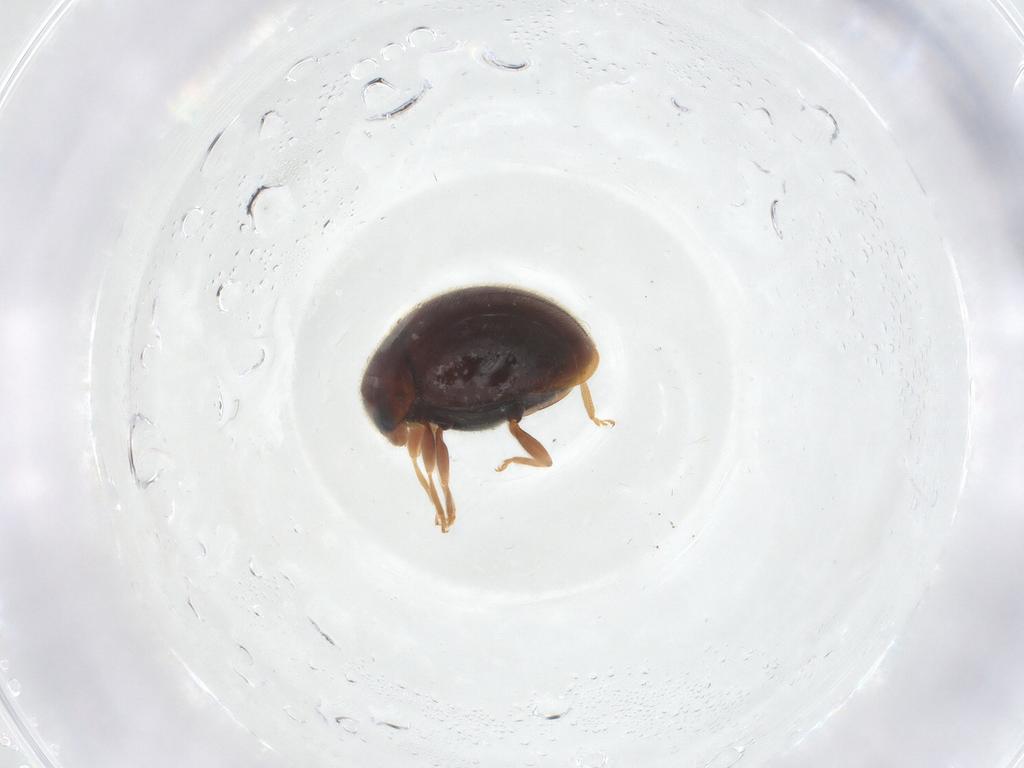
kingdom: Animalia
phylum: Arthropoda
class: Insecta
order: Coleoptera
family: Coccinellidae
